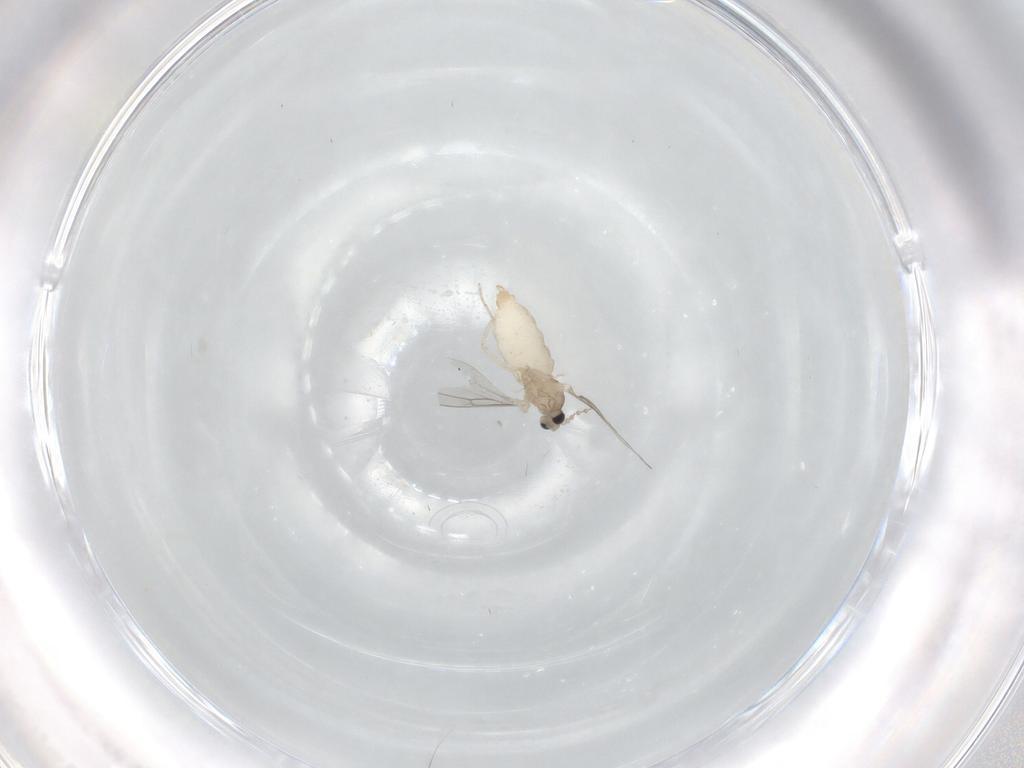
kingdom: Animalia
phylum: Arthropoda
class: Insecta
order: Diptera
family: Cecidomyiidae
